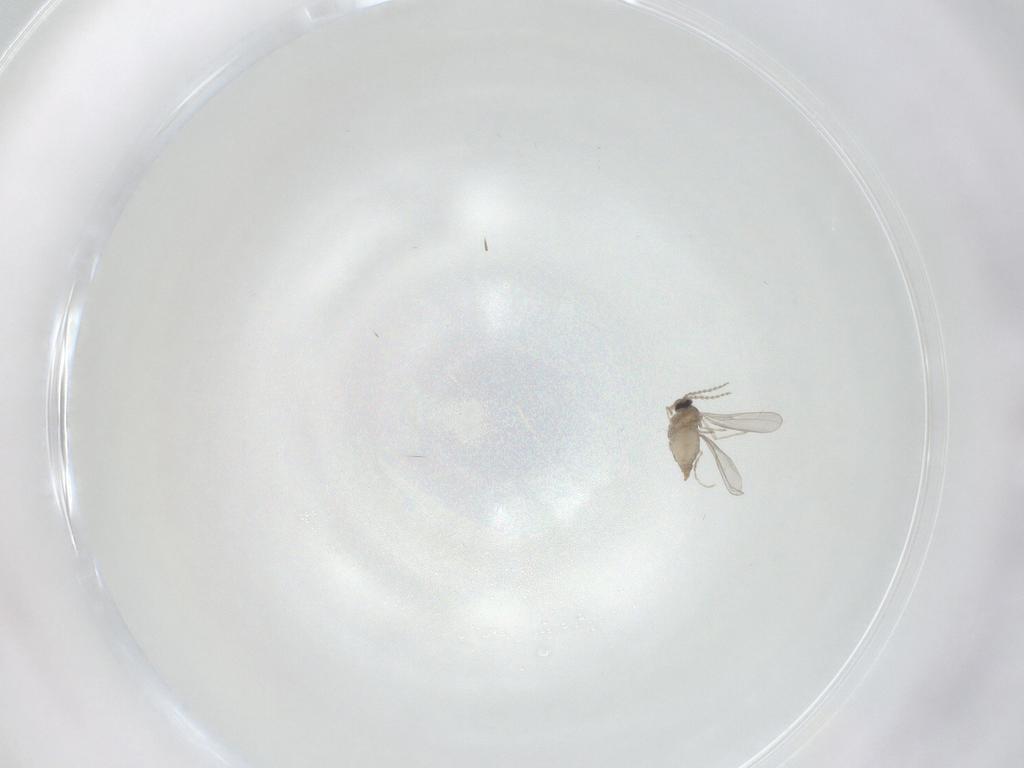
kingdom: Animalia
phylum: Arthropoda
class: Insecta
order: Diptera
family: Cecidomyiidae
